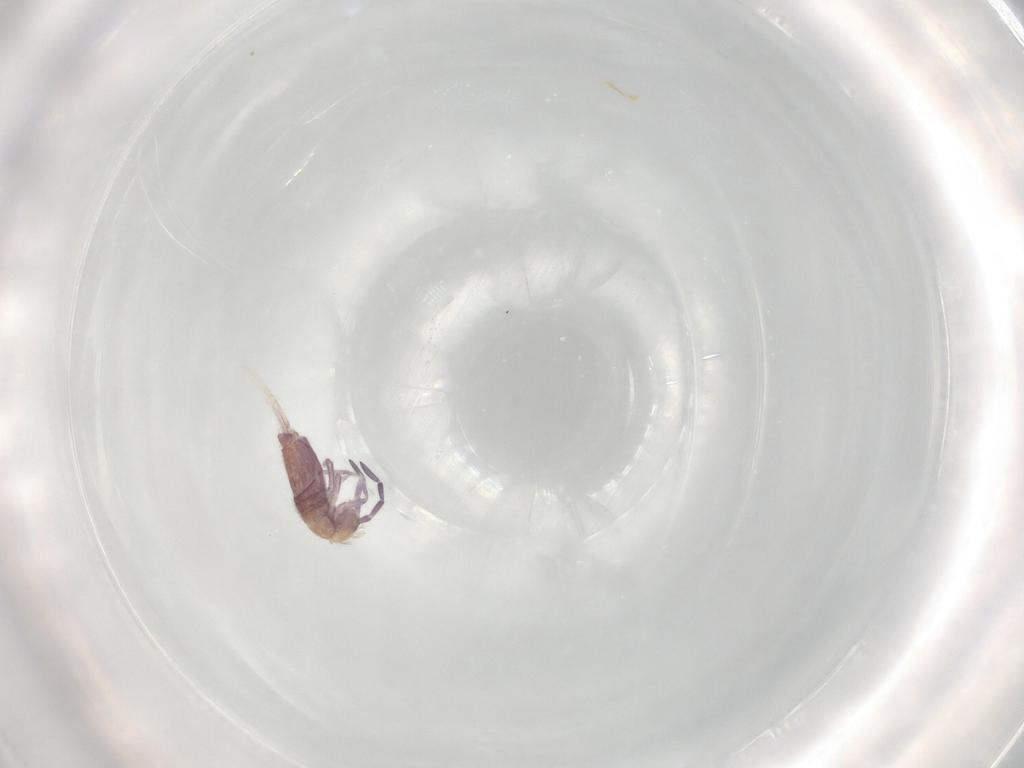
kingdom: Animalia
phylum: Arthropoda
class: Collembola
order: Entomobryomorpha
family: Entomobryidae
